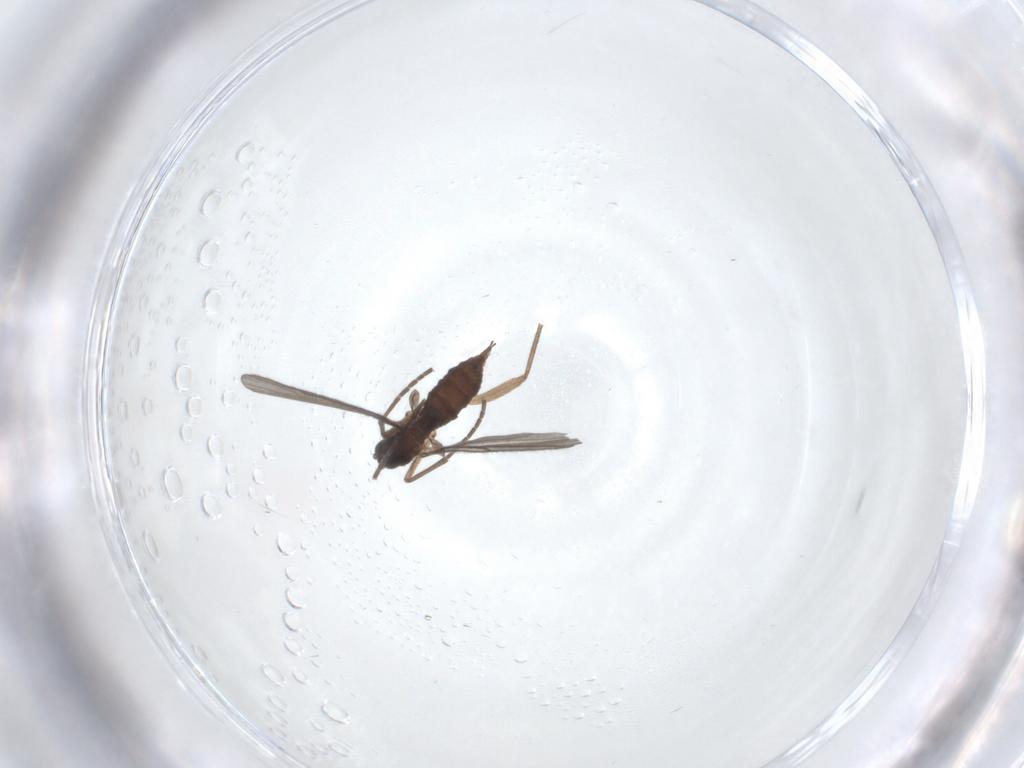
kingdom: Animalia
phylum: Arthropoda
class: Insecta
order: Diptera
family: Sciaridae
